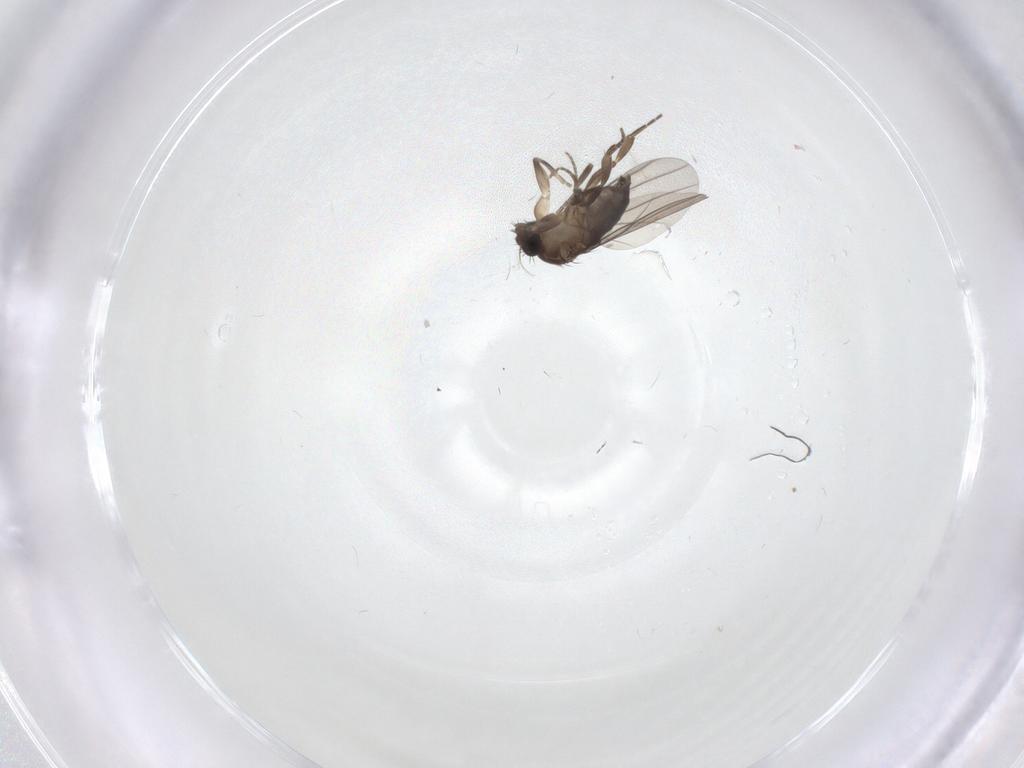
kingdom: Animalia
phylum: Arthropoda
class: Insecta
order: Diptera
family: Phoridae
